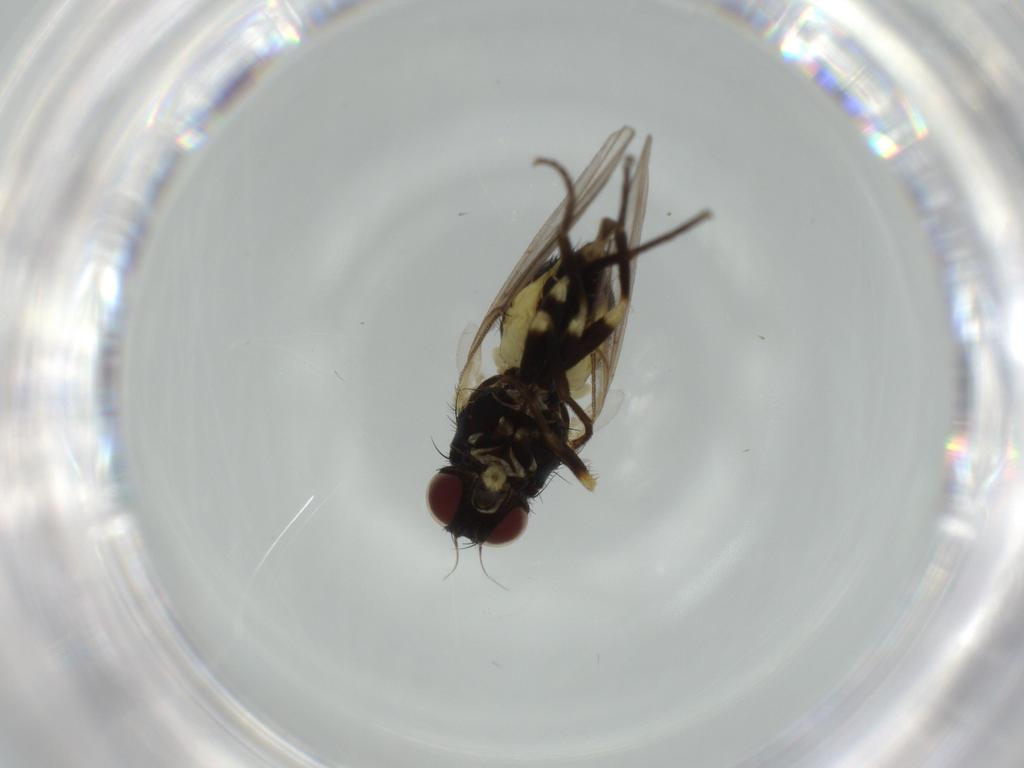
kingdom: Animalia
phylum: Arthropoda
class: Insecta
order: Diptera
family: Agromyzidae
